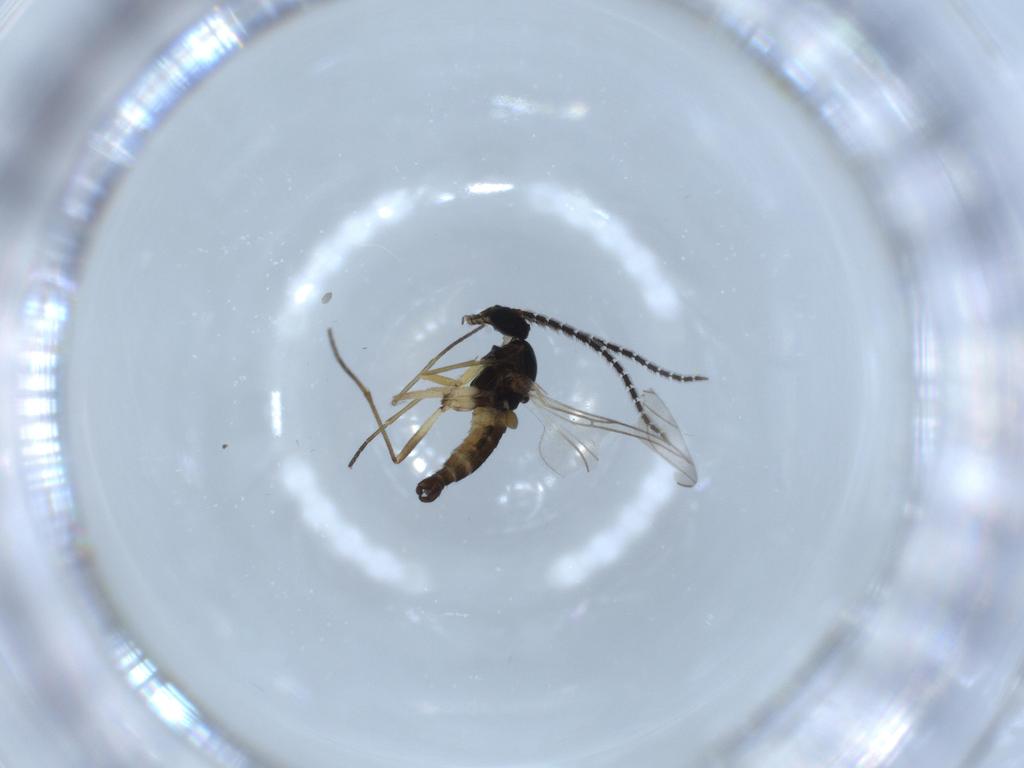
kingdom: Animalia
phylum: Arthropoda
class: Insecta
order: Diptera
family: Sciaridae
